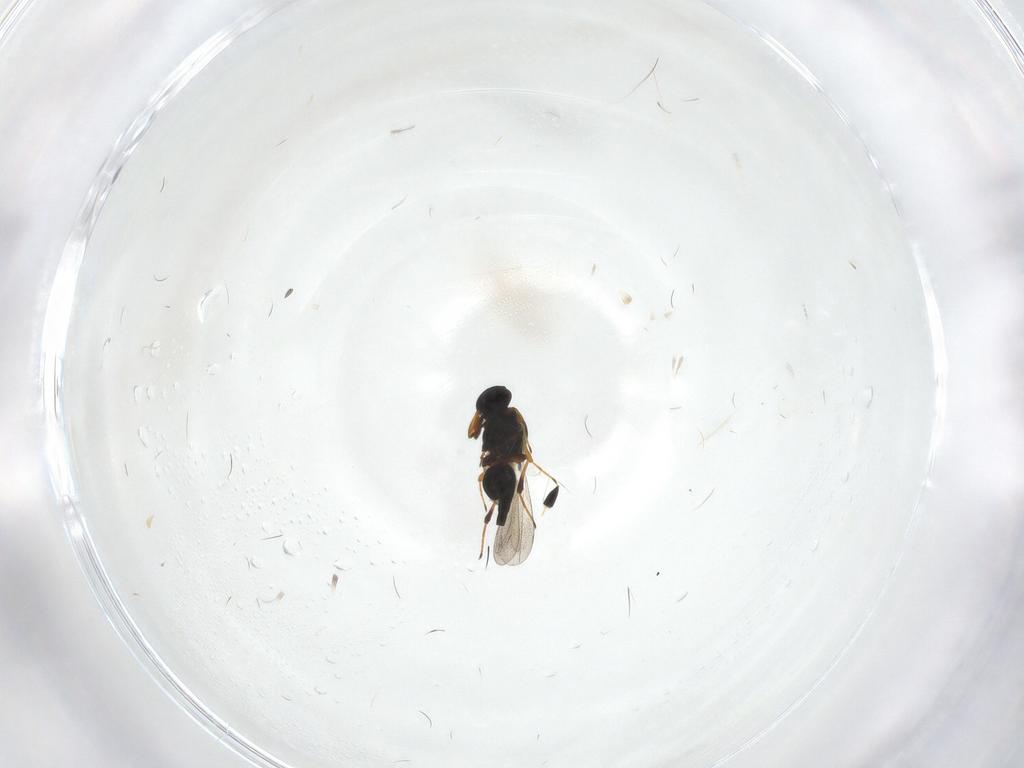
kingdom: Animalia
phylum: Arthropoda
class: Insecta
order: Hymenoptera
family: Platygastridae
